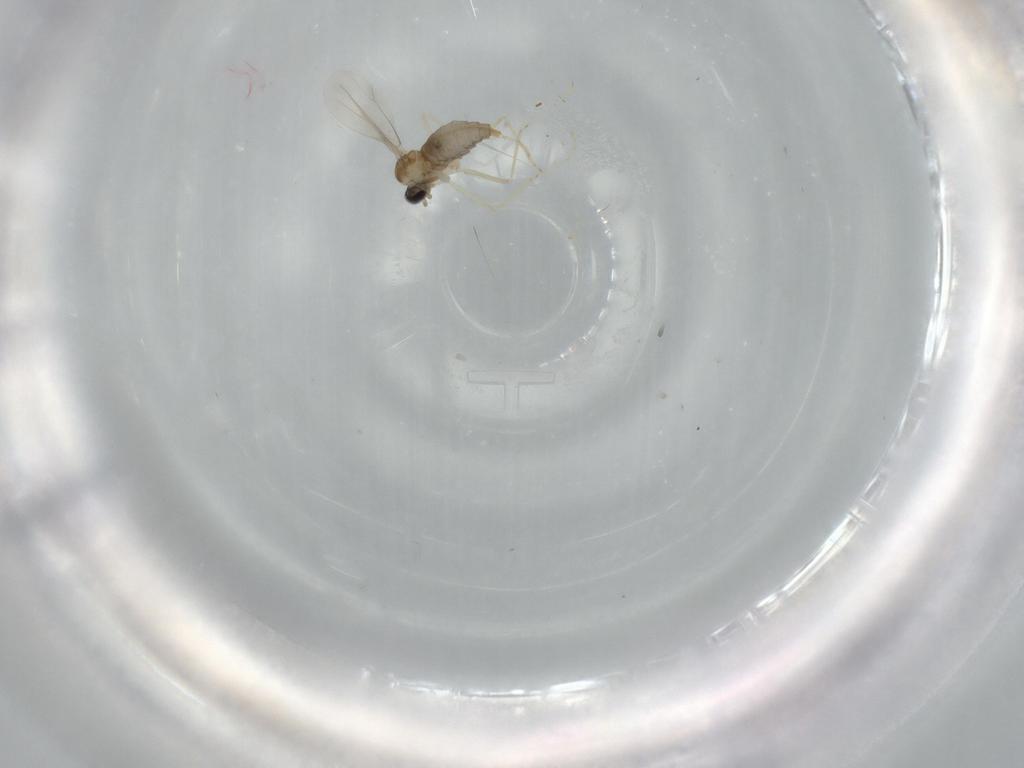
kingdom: Animalia
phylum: Arthropoda
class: Insecta
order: Diptera
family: Cecidomyiidae
